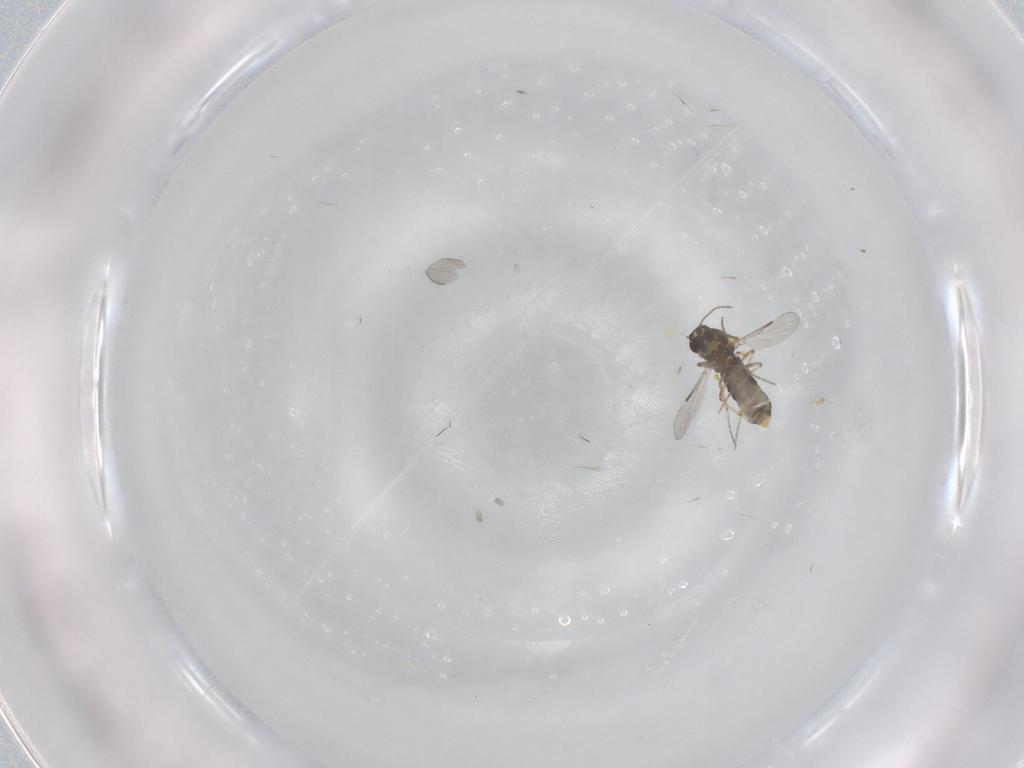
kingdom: Animalia
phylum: Arthropoda
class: Insecta
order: Diptera
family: Ceratopogonidae
